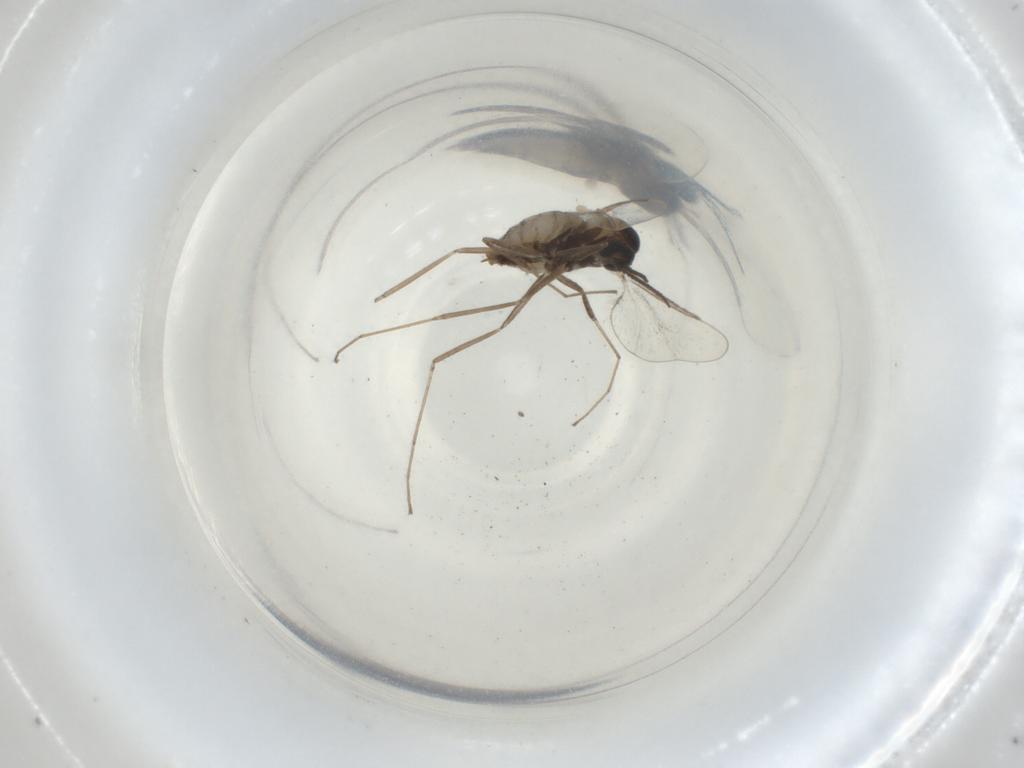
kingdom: Animalia
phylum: Arthropoda
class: Insecta
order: Diptera
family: Cecidomyiidae
